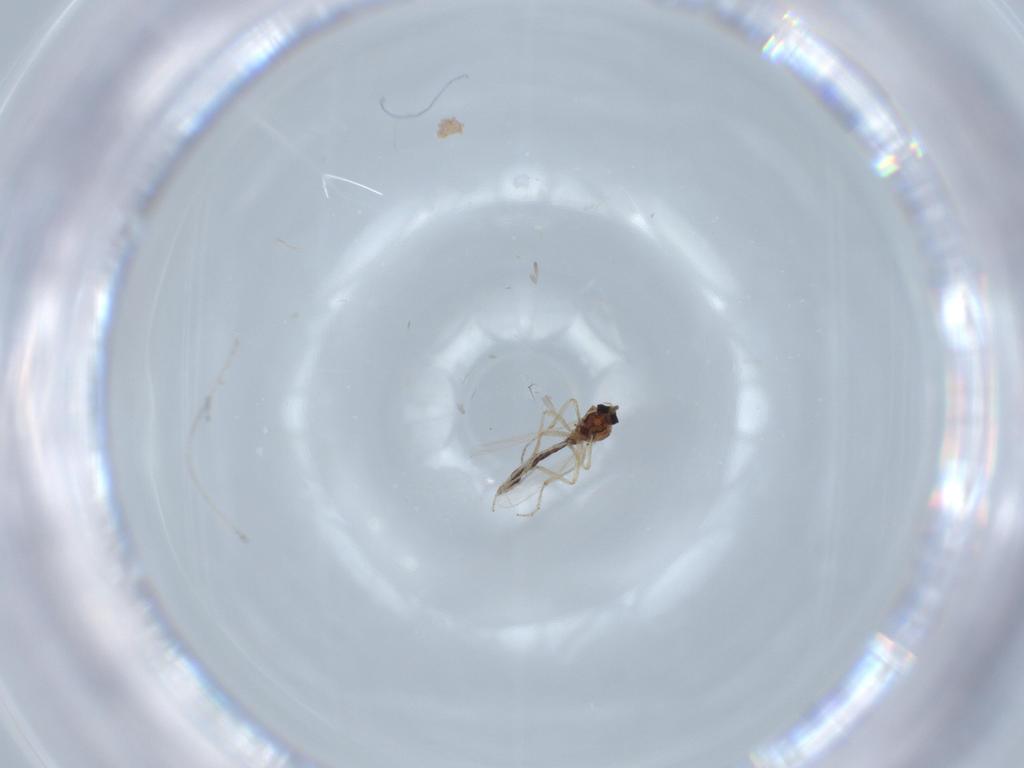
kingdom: Animalia
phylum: Arthropoda
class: Insecta
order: Diptera
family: Ceratopogonidae
